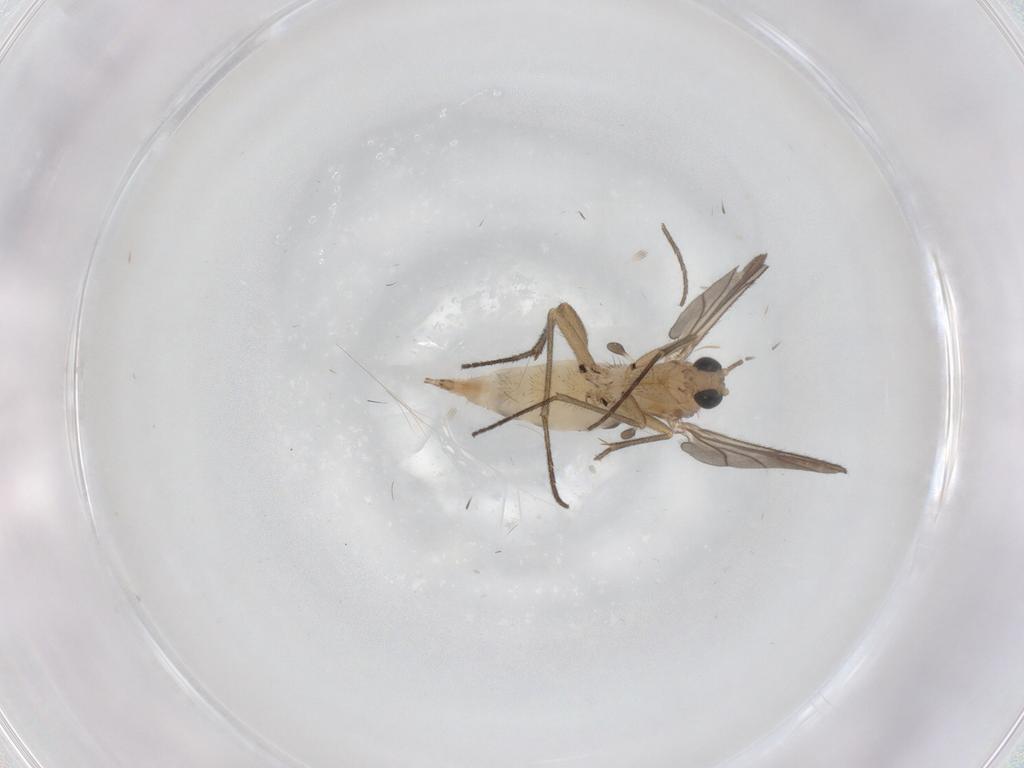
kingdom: Animalia
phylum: Arthropoda
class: Insecta
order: Diptera
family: Sciaridae
